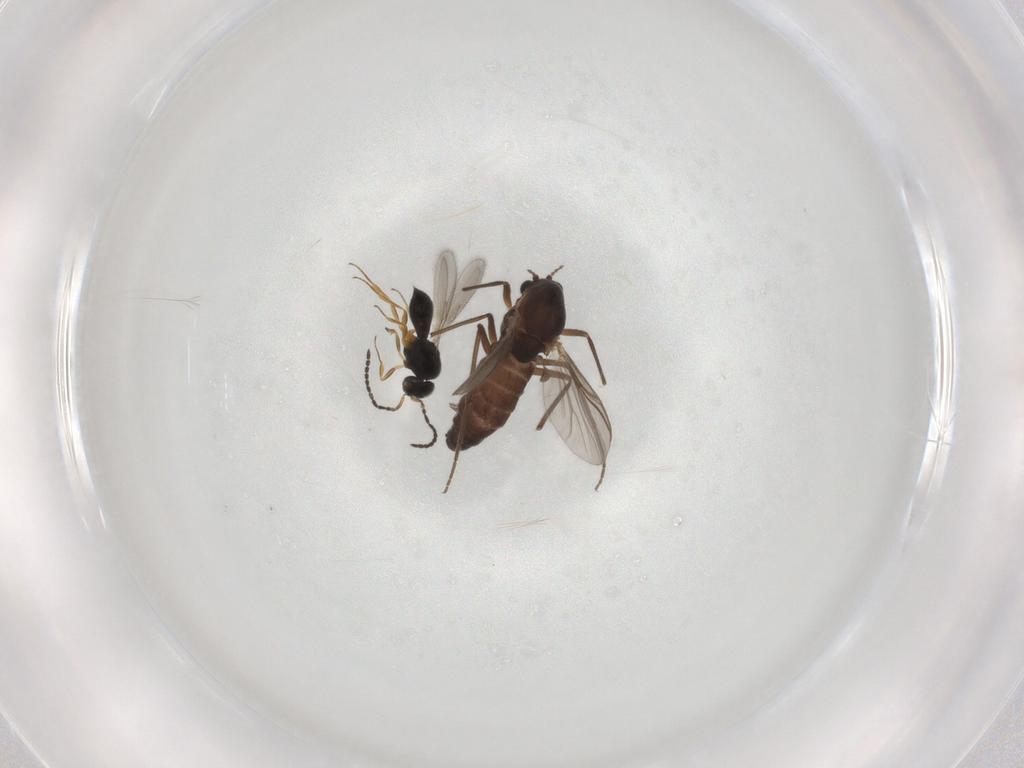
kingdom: Animalia
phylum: Arthropoda
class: Insecta
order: Diptera
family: Chironomidae
